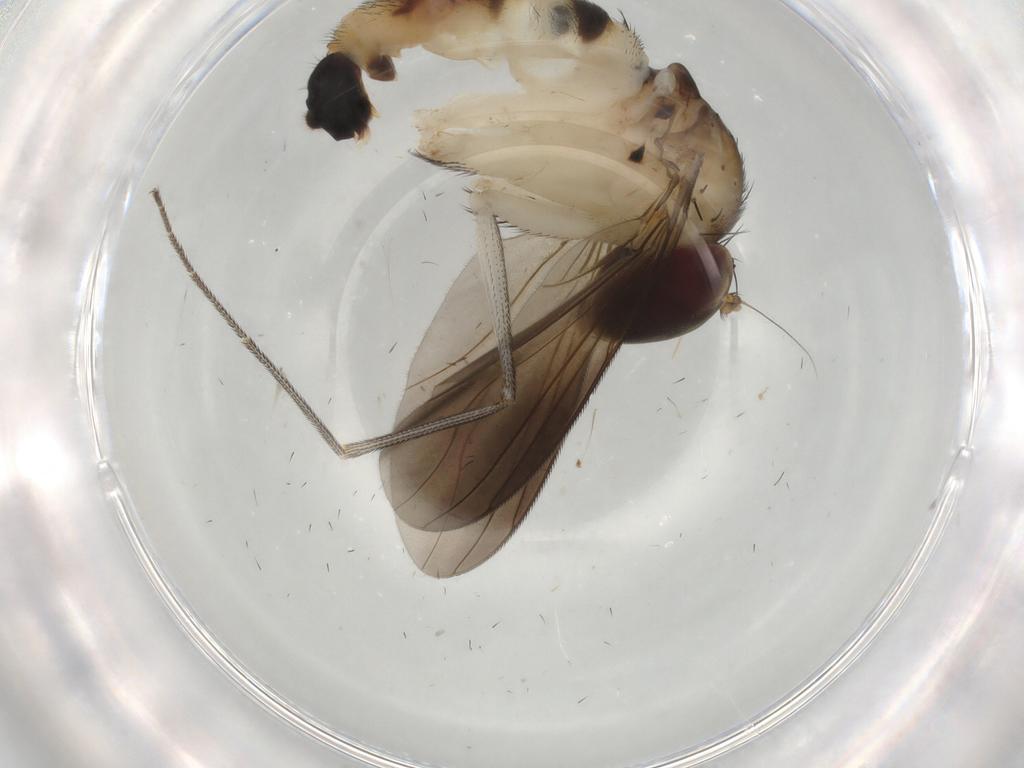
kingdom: Animalia
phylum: Arthropoda
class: Insecta
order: Diptera
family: Dolichopodidae
